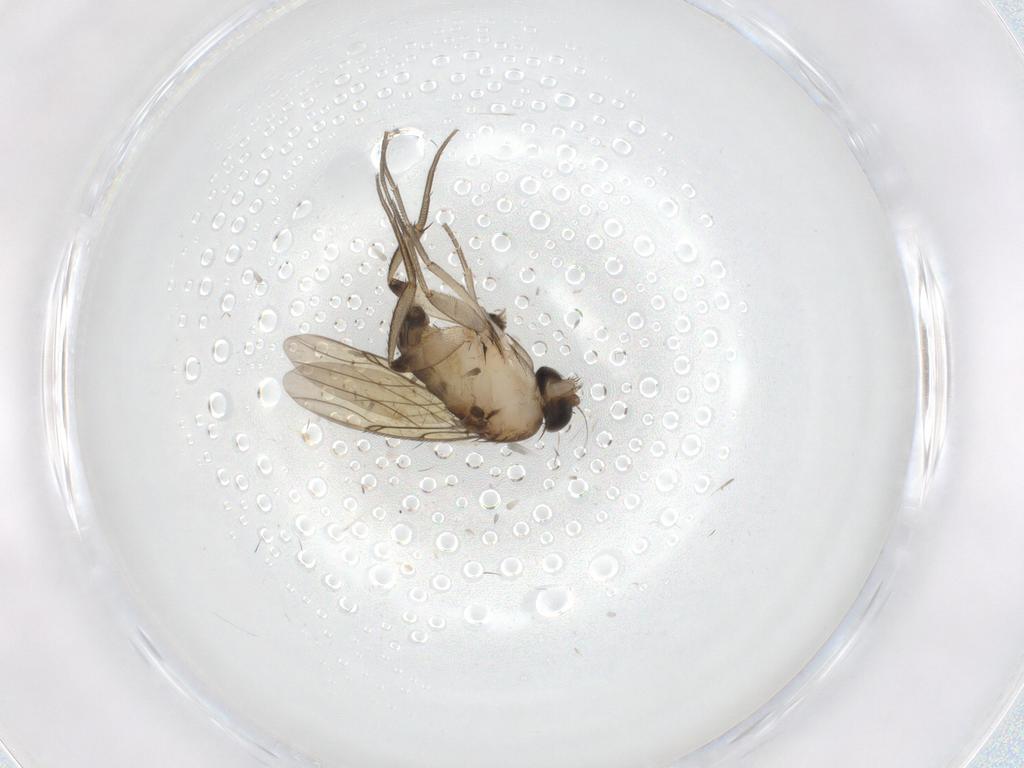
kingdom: Animalia
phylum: Arthropoda
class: Insecta
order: Diptera
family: Phoridae
